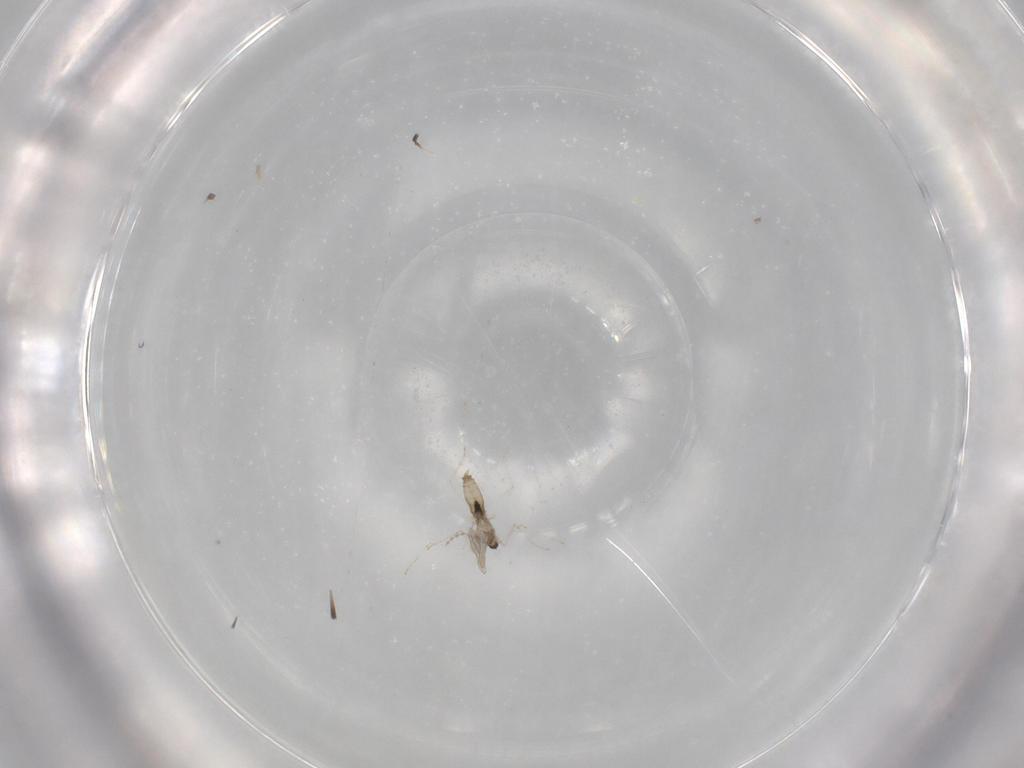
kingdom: Animalia
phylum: Arthropoda
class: Insecta
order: Diptera
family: Cecidomyiidae
